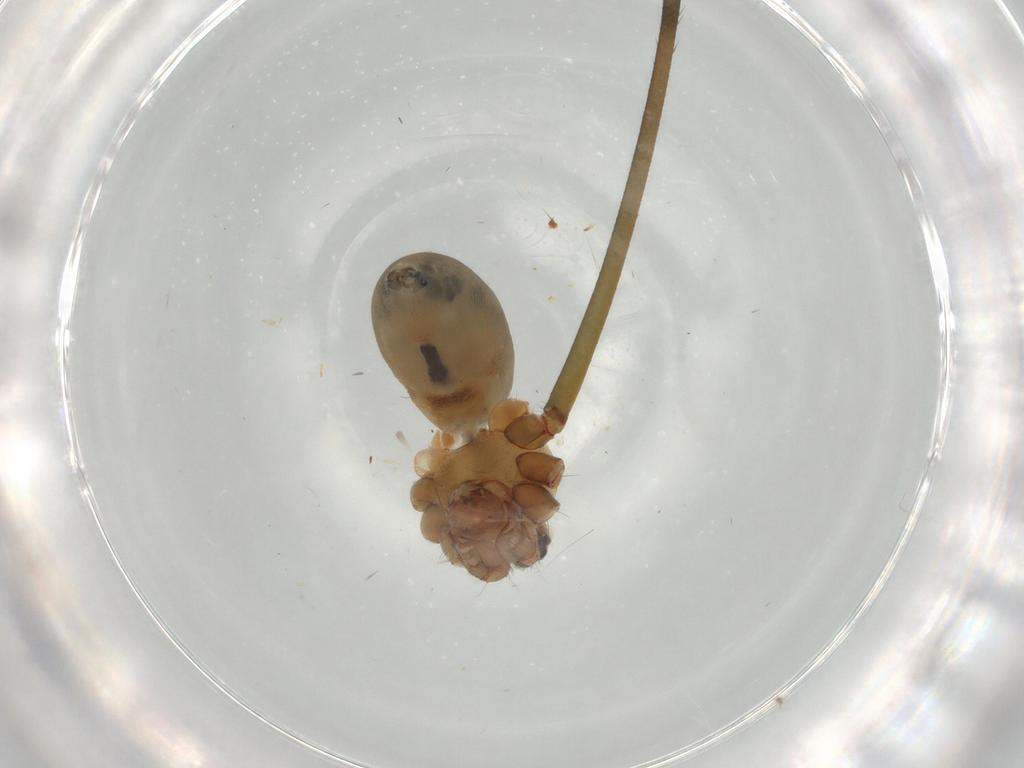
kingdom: Animalia
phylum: Arthropoda
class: Arachnida
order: Araneae
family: Pholcidae
